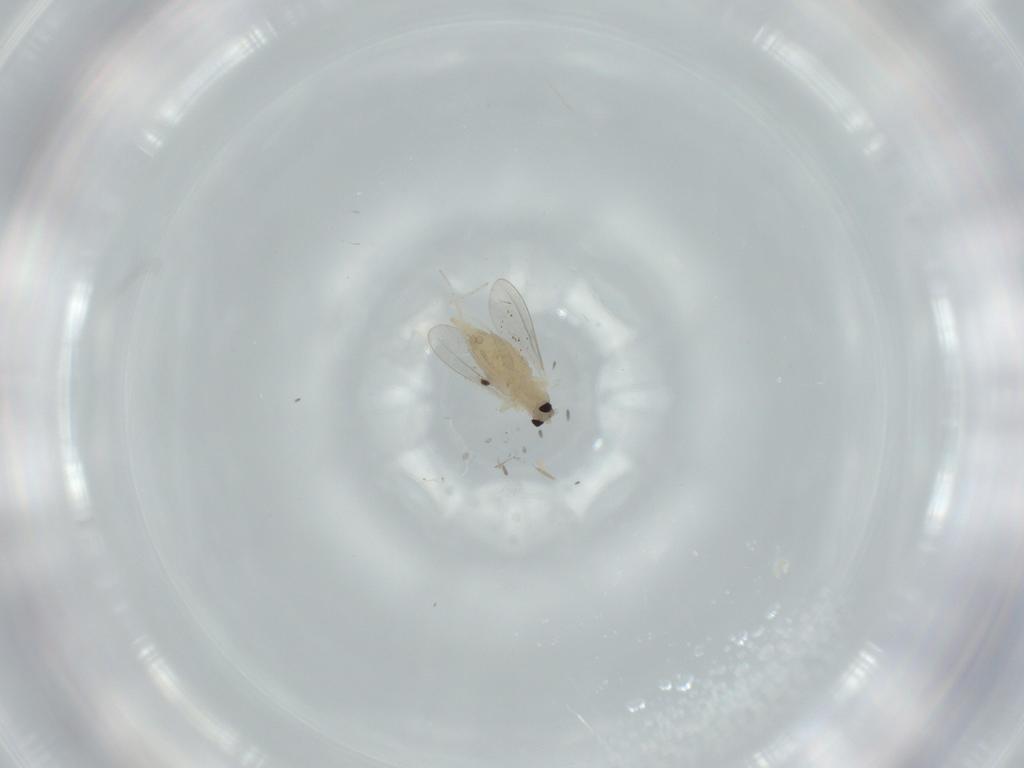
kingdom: Animalia
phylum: Arthropoda
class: Insecta
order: Diptera
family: Cecidomyiidae
